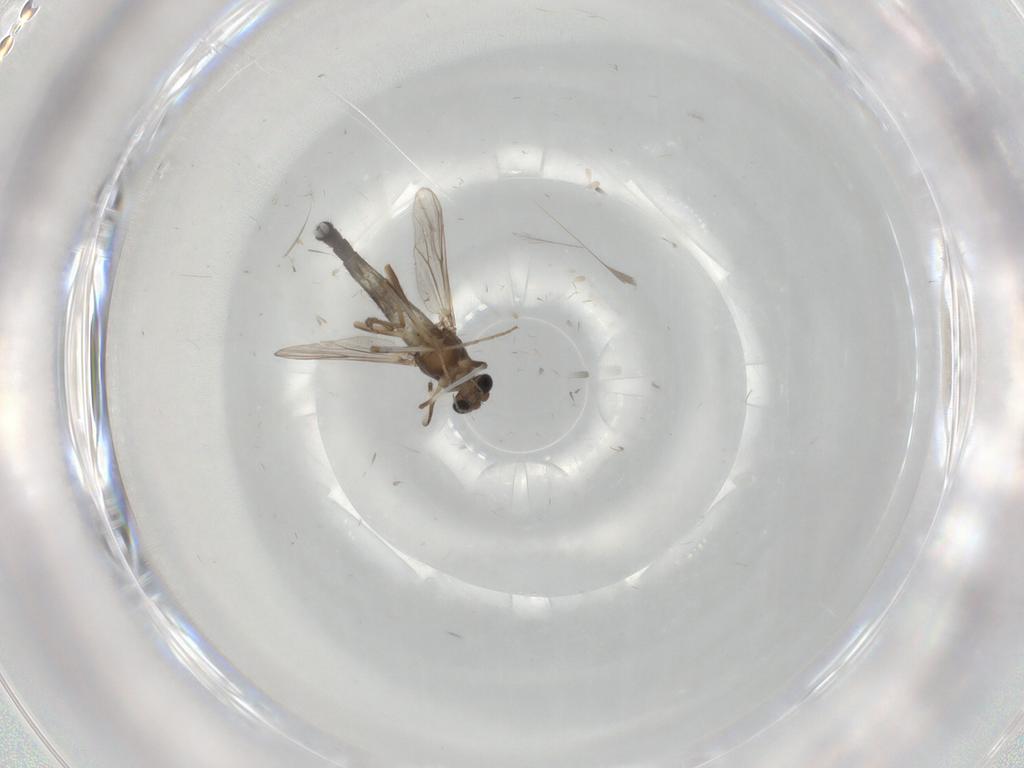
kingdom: Animalia
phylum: Arthropoda
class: Insecta
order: Diptera
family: Chironomidae
